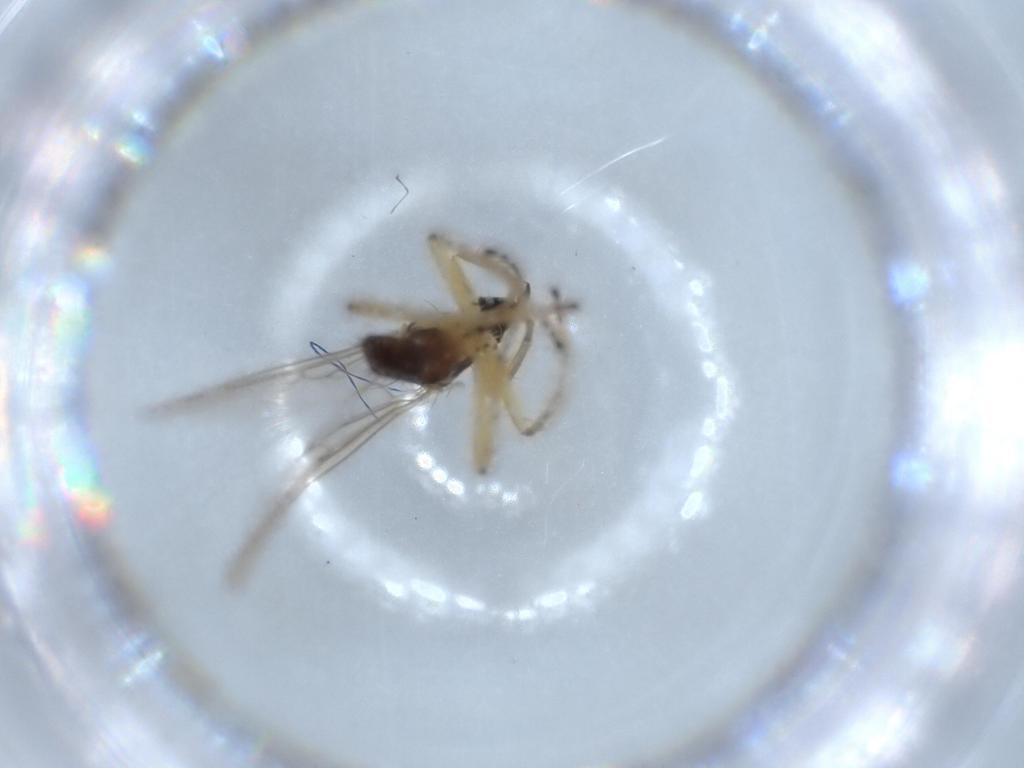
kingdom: Animalia
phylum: Arthropoda
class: Insecta
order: Diptera
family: Hybotidae
